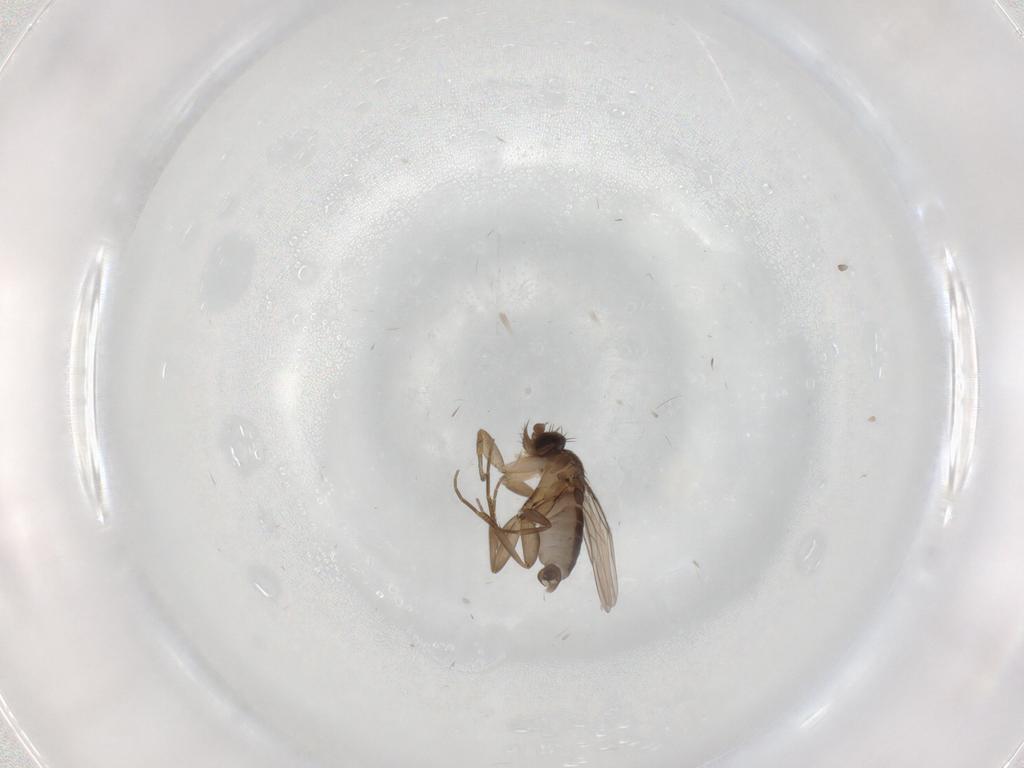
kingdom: Animalia
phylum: Arthropoda
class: Insecta
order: Diptera
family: Phoridae
